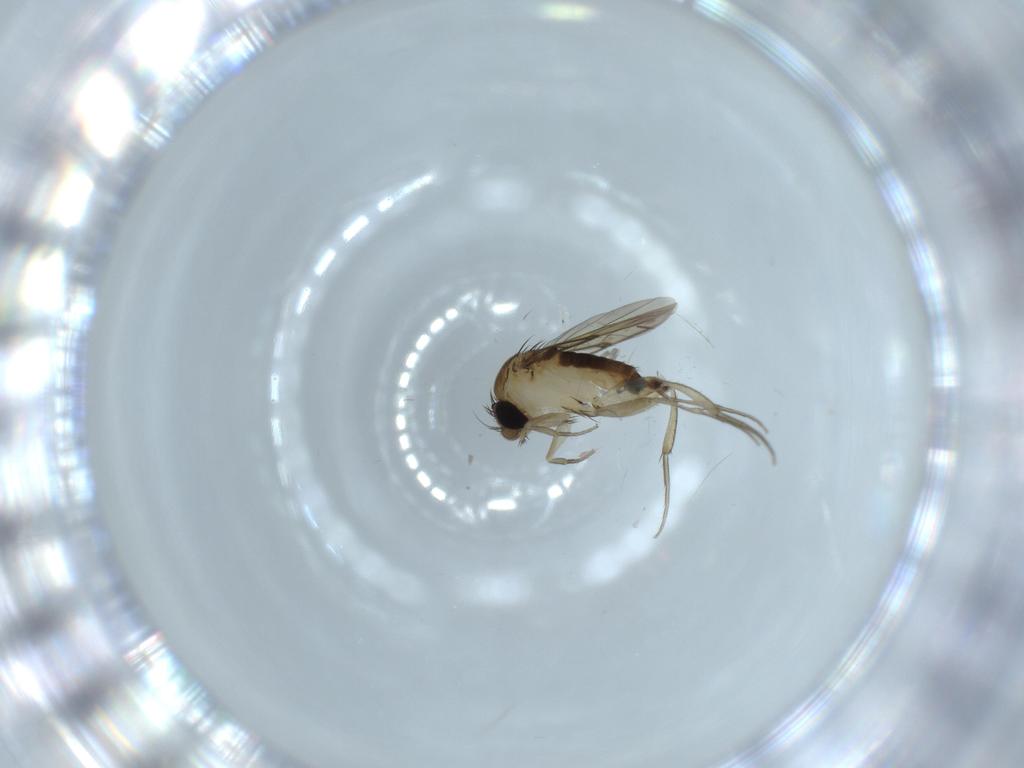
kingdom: Animalia
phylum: Arthropoda
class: Insecta
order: Diptera
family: Phoridae
